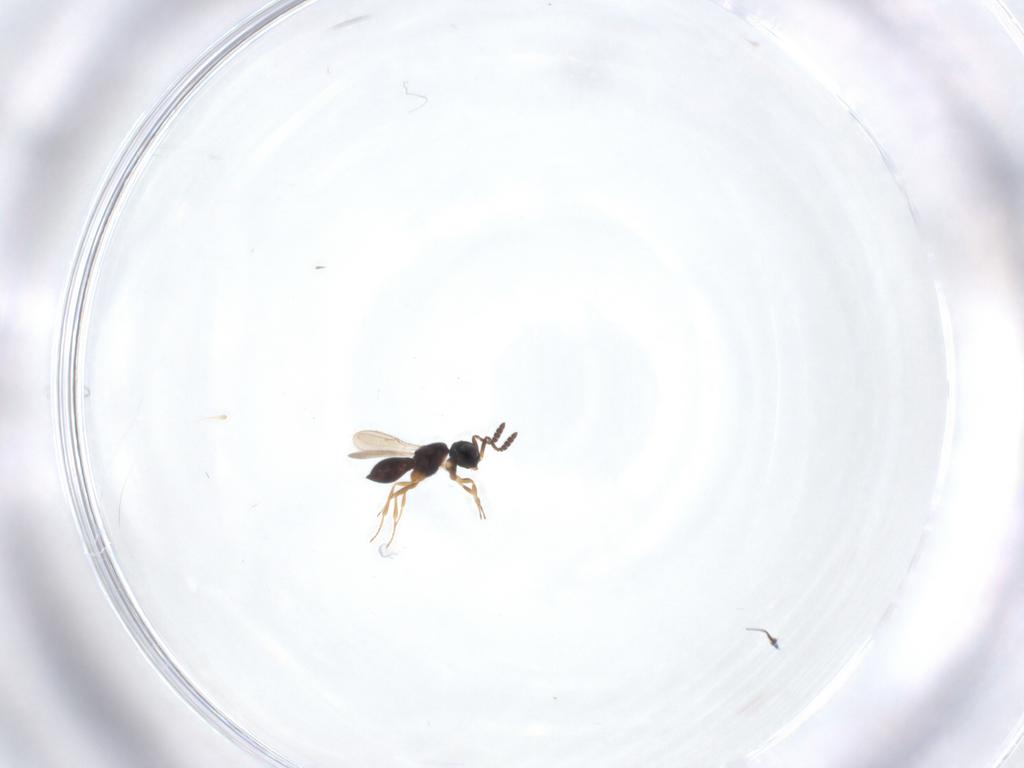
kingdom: Animalia
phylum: Arthropoda
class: Insecta
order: Hymenoptera
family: Scelionidae
